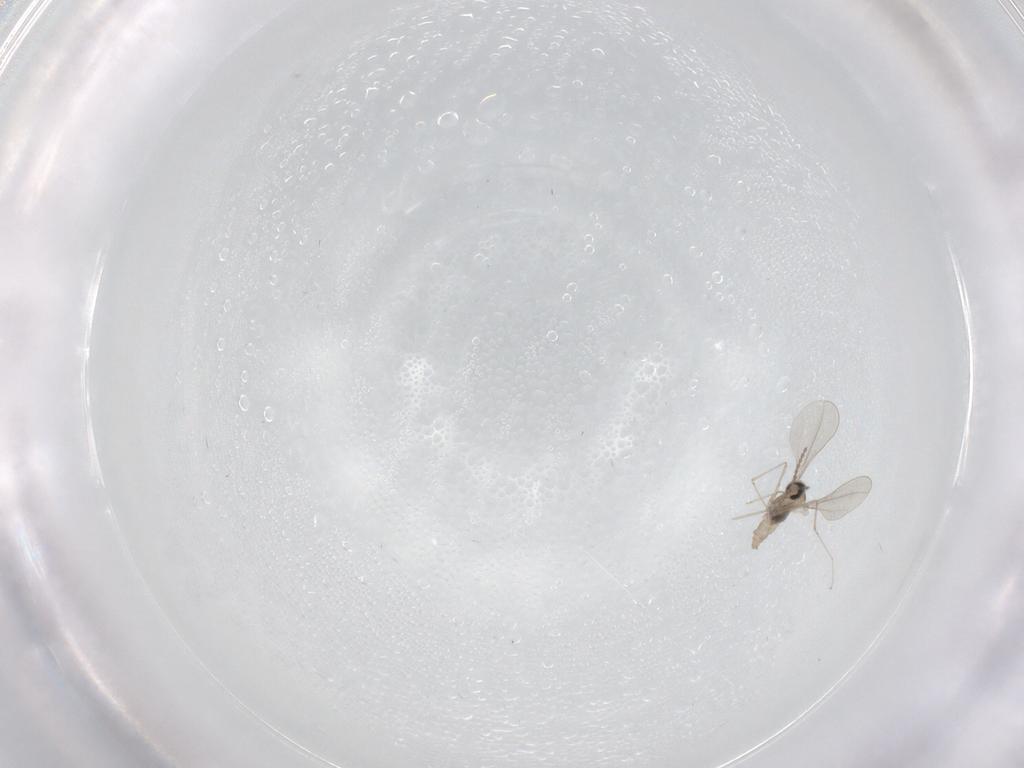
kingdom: Animalia
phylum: Arthropoda
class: Insecta
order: Diptera
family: Cecidomyiidae
